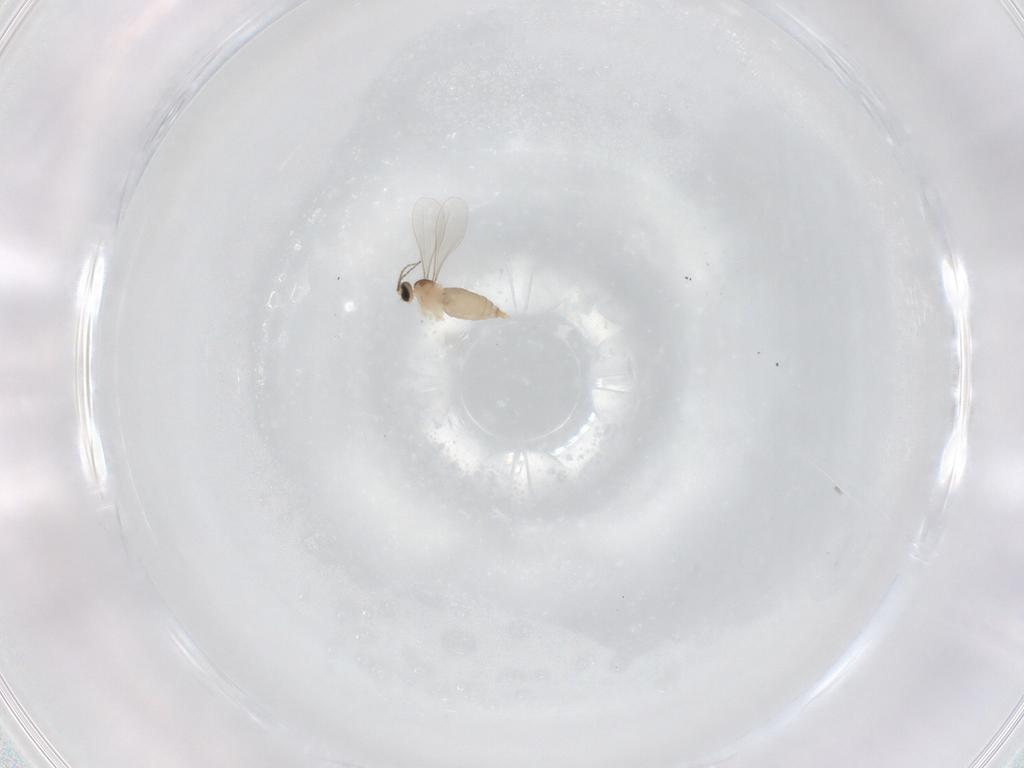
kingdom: Animalia
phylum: Arthropoda
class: Insecta
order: Diptera
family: Cecidomyiidae
